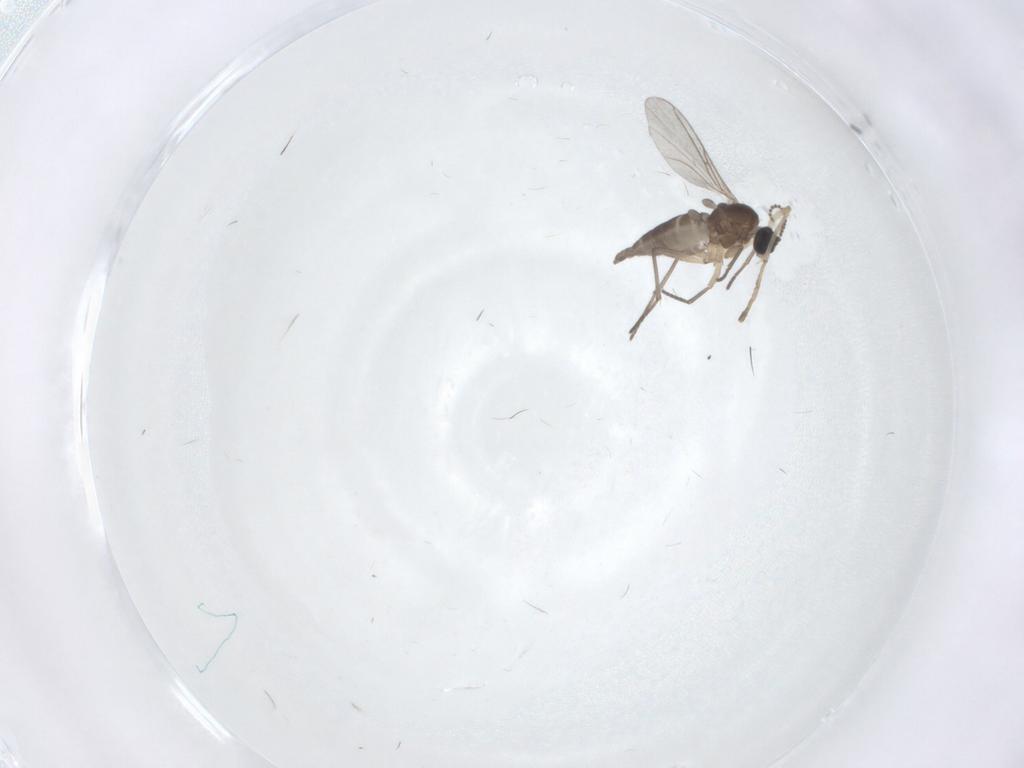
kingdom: Animalia
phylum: Arthropoda
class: Insecta
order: Diptera
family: Sciaridae
